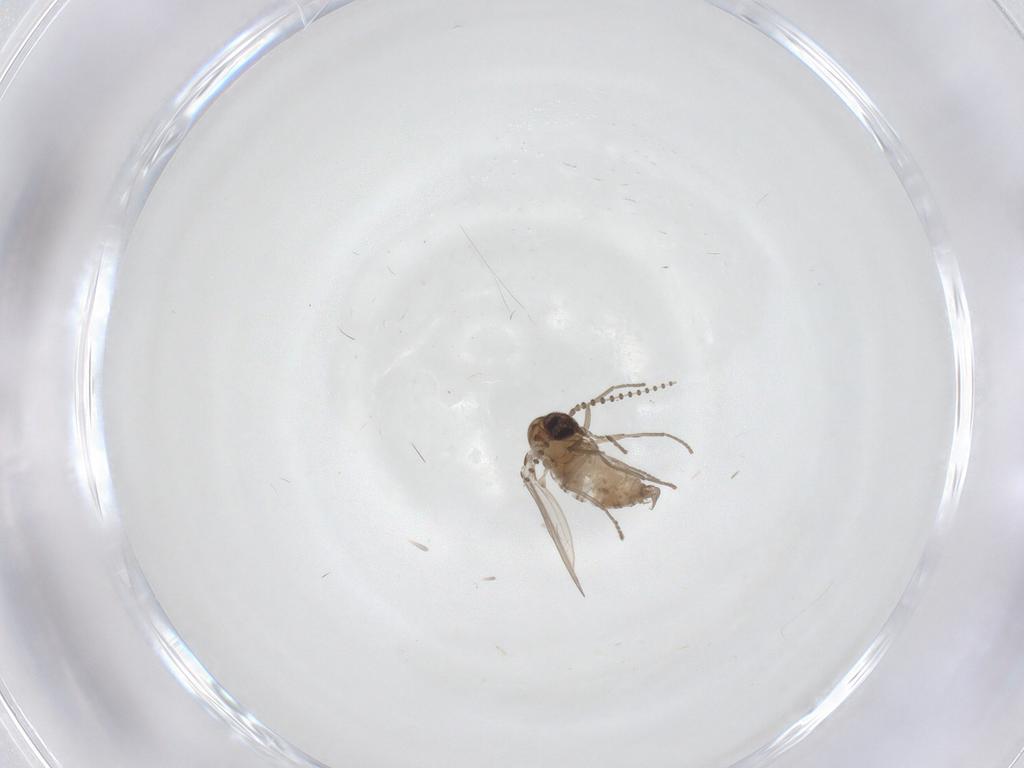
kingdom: Animalia
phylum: Arthropoda
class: Insecta
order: Diptera
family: Psychodidae
